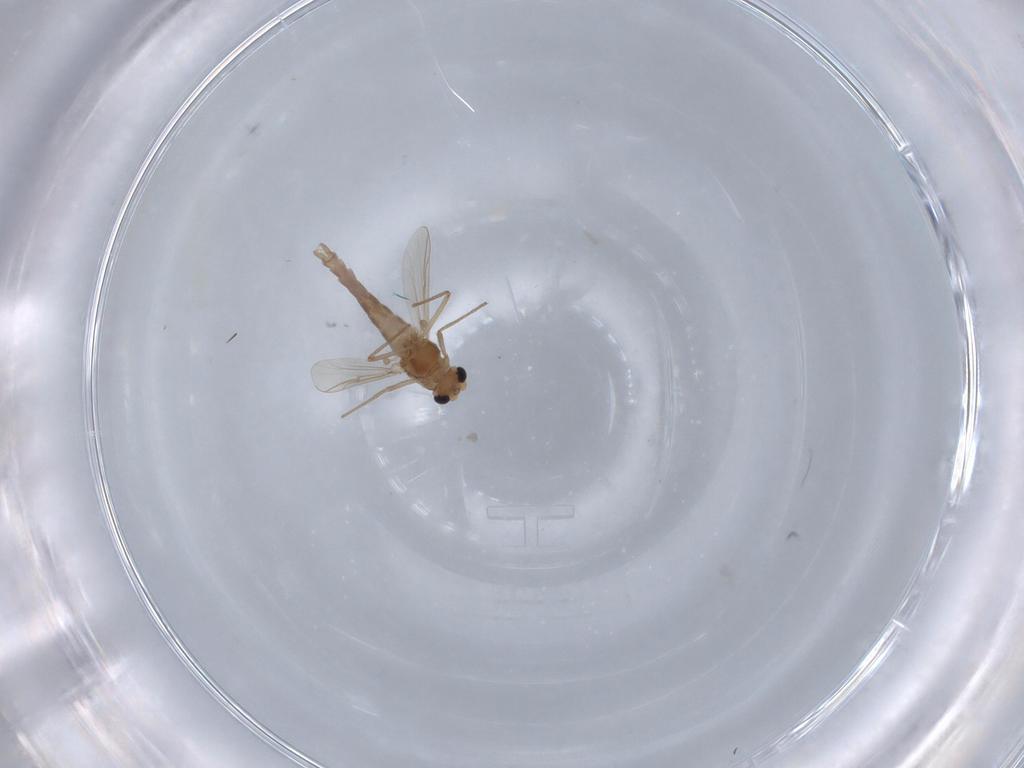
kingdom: Animalia
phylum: Arthropoda
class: Insecta
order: Diptera
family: Chironomidae
